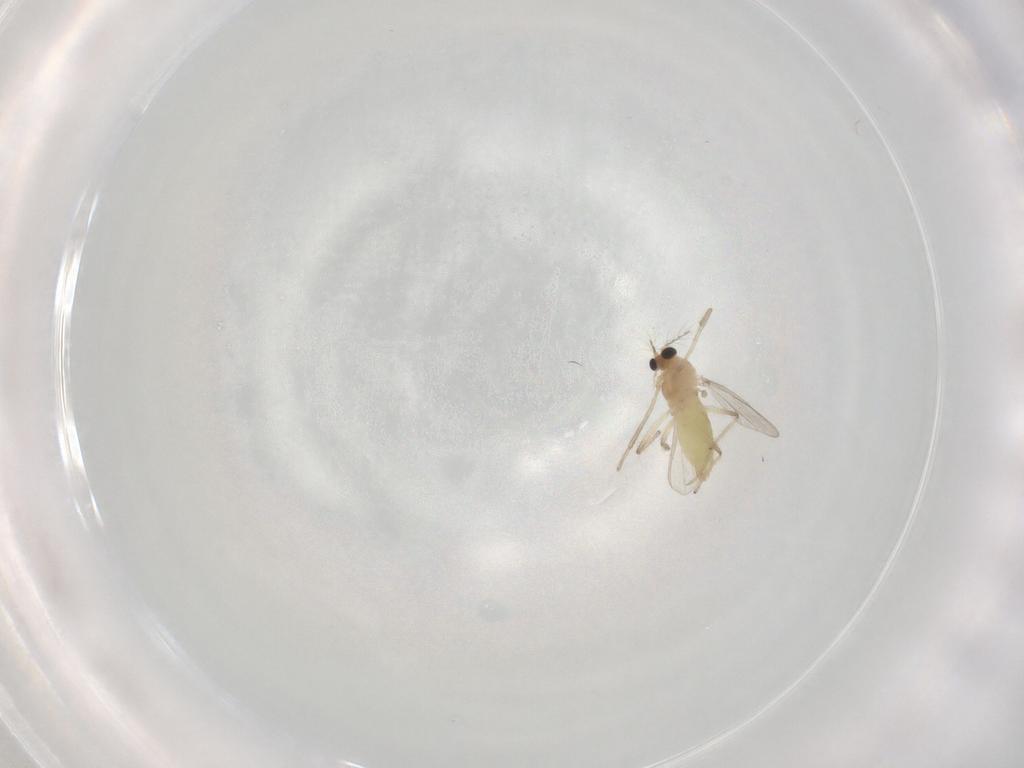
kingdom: Animalia
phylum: Arthropoda
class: Insecta
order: Diptera
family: Chironomidae
